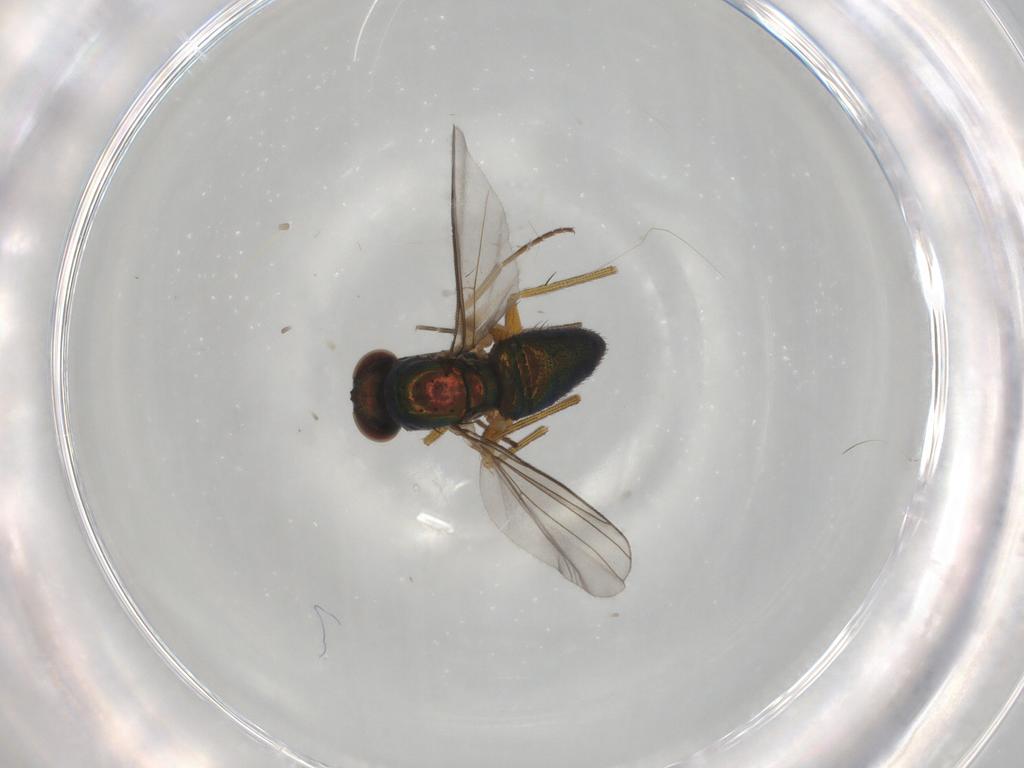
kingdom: Animalia
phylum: Arthropoda
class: Insecta
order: Diptera
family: Dolichopodidae
